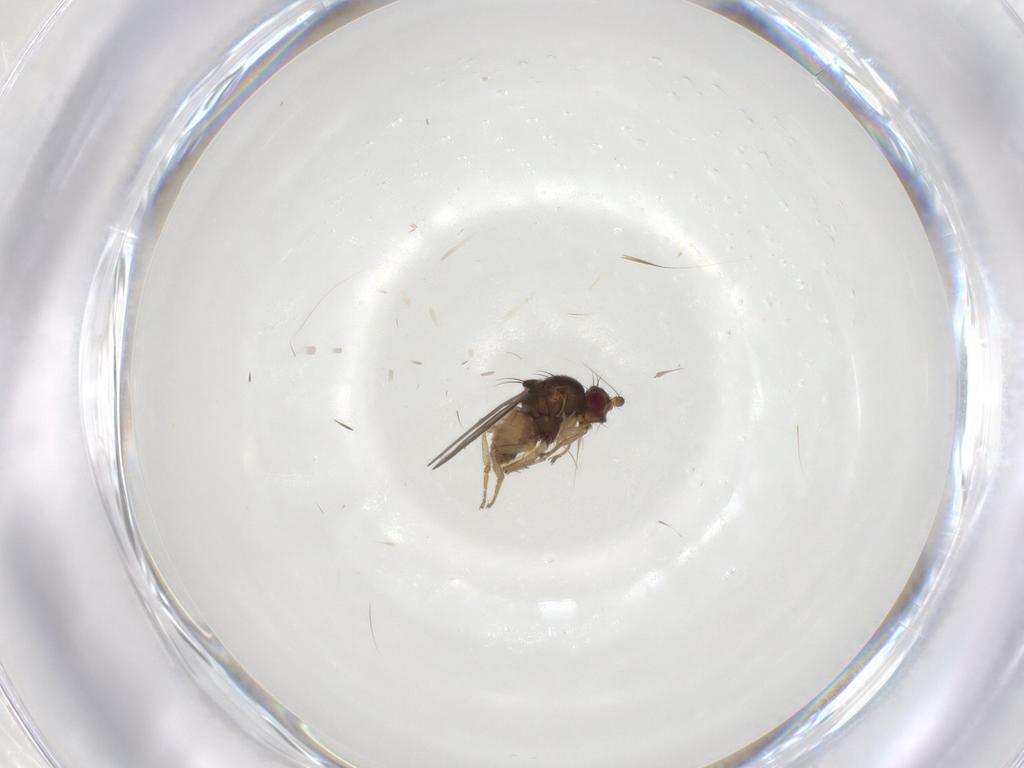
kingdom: Animalia
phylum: Arthropoda
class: Insecta
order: Diptera
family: Sphaeroceridae
